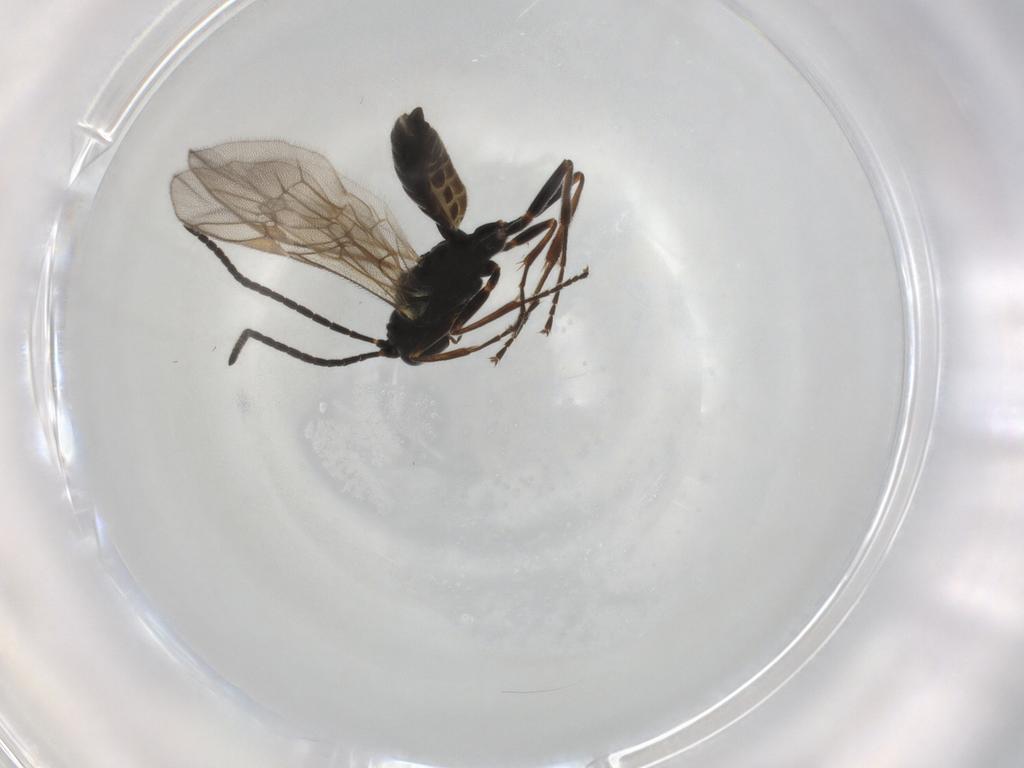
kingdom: Animalia
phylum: Arthropoda
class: Insecta
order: Hymenoptera
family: Ichneumonidae
